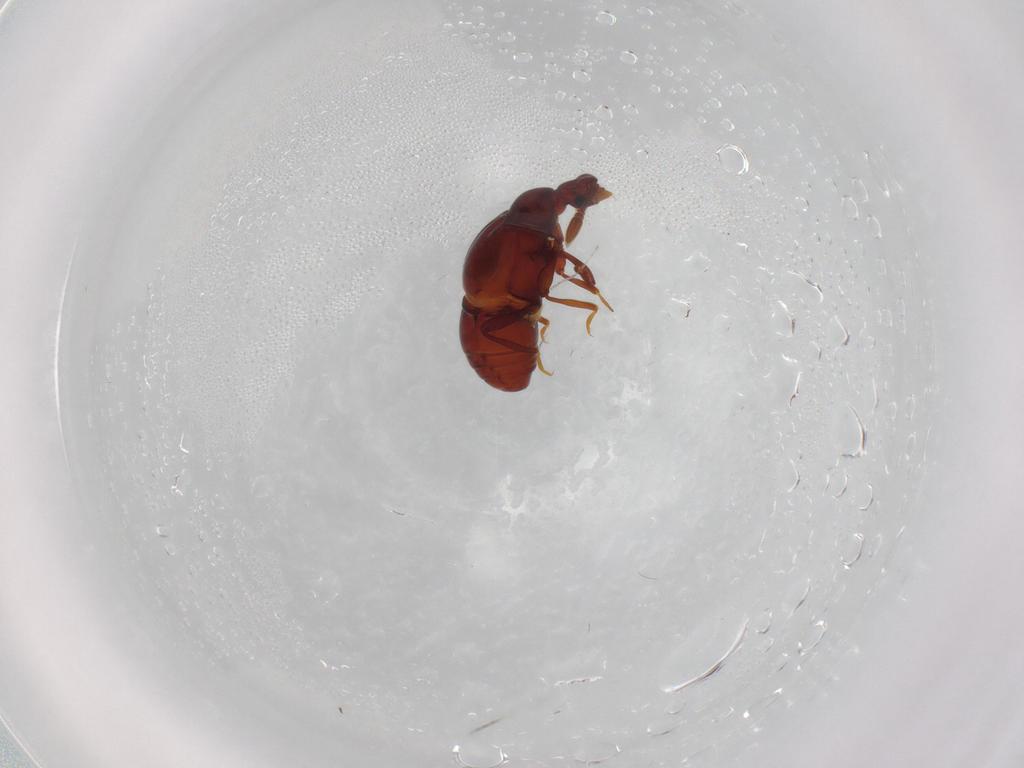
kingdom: Animalia
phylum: Arthropoda
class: Insecta
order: Coleoptera
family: Staphylinidae
